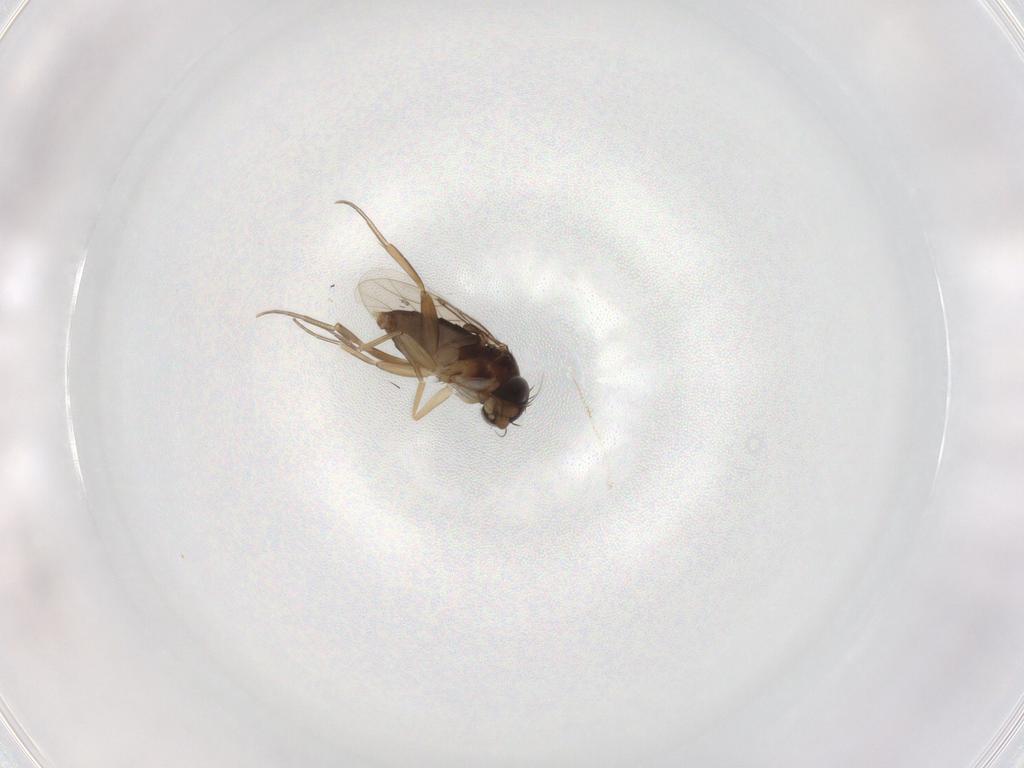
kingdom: Animalia
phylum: Arthropoda
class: Insecta
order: Diptera
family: Phoridae
